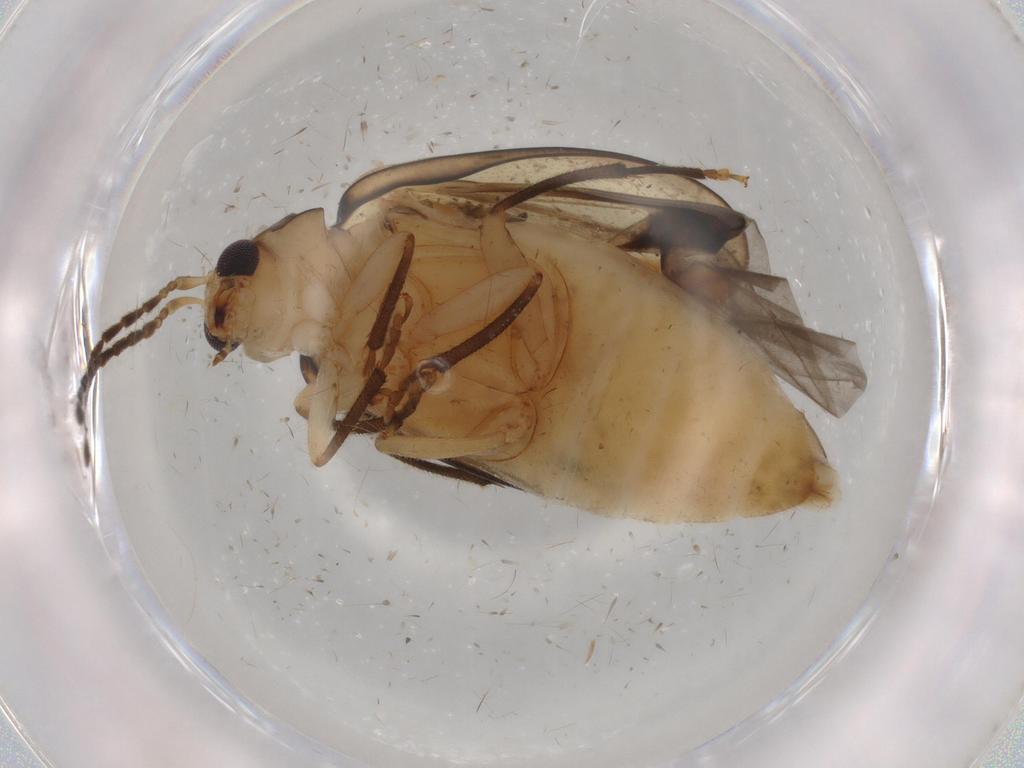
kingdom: Animalia
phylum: Arthropoda
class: Insecta
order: Coleoptera
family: Chrysomelidae
